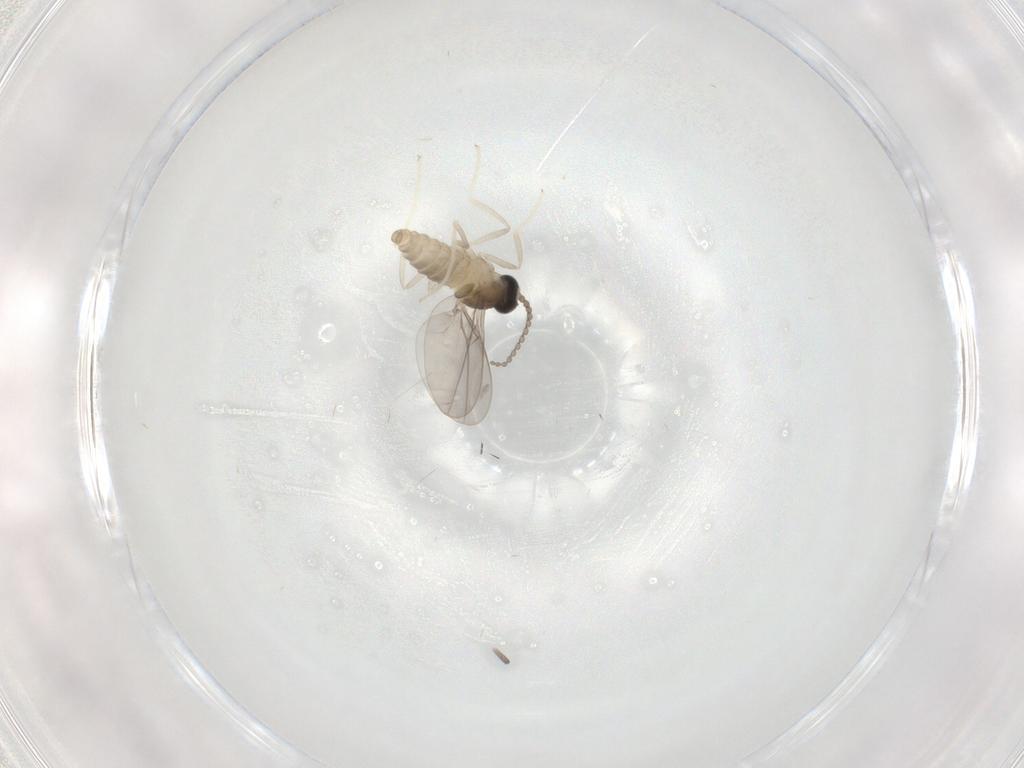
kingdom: Animalia
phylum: Arthropoda
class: Insecta
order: Diptera
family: Cecidomyiidae
